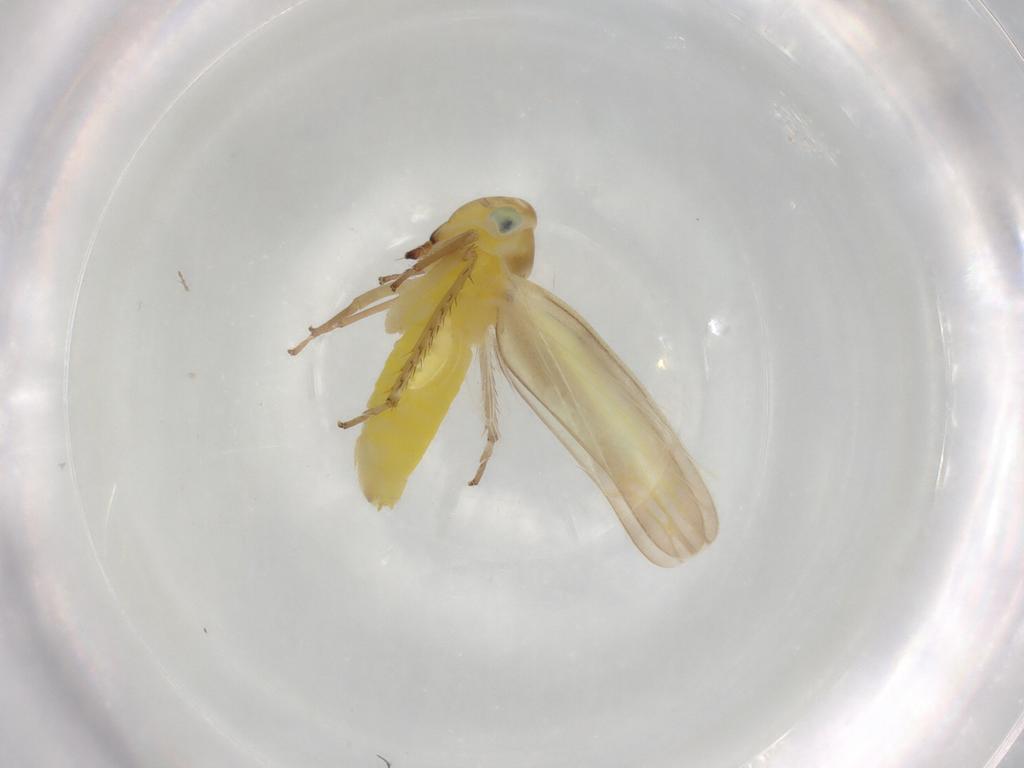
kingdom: Animalia
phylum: Arthropoda
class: Insecta
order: Hemiptera
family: Cicadellidae
